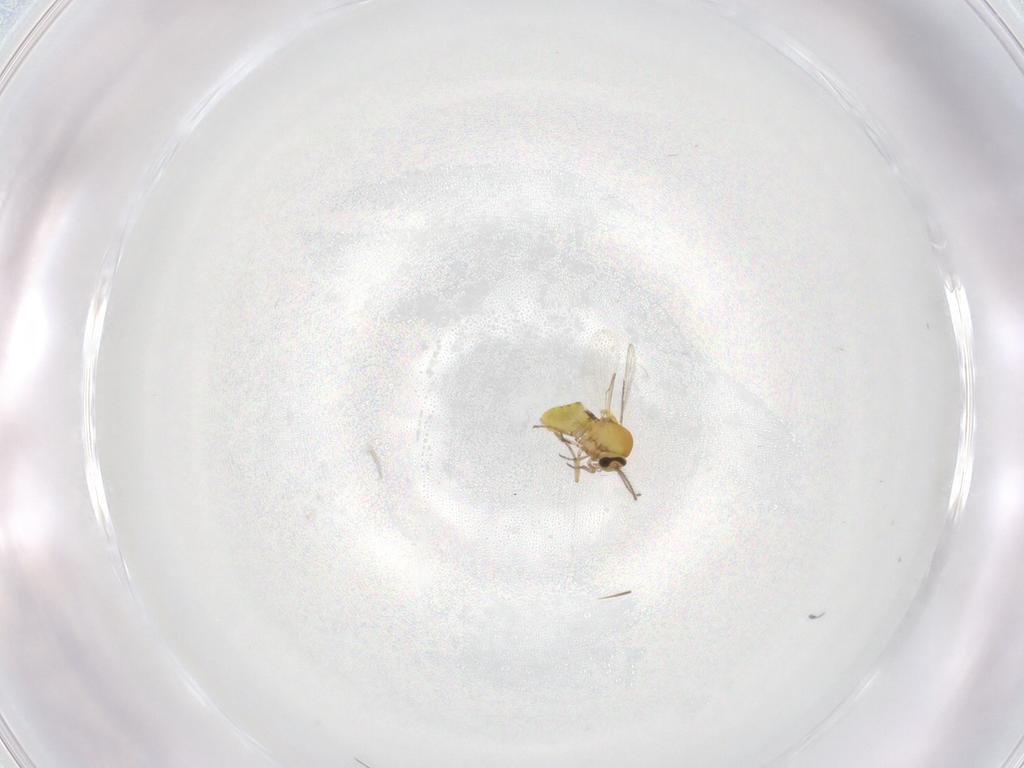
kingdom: Animalia
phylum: Arthropoda
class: Insecta
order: Diptera
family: Ceratopogonidae
